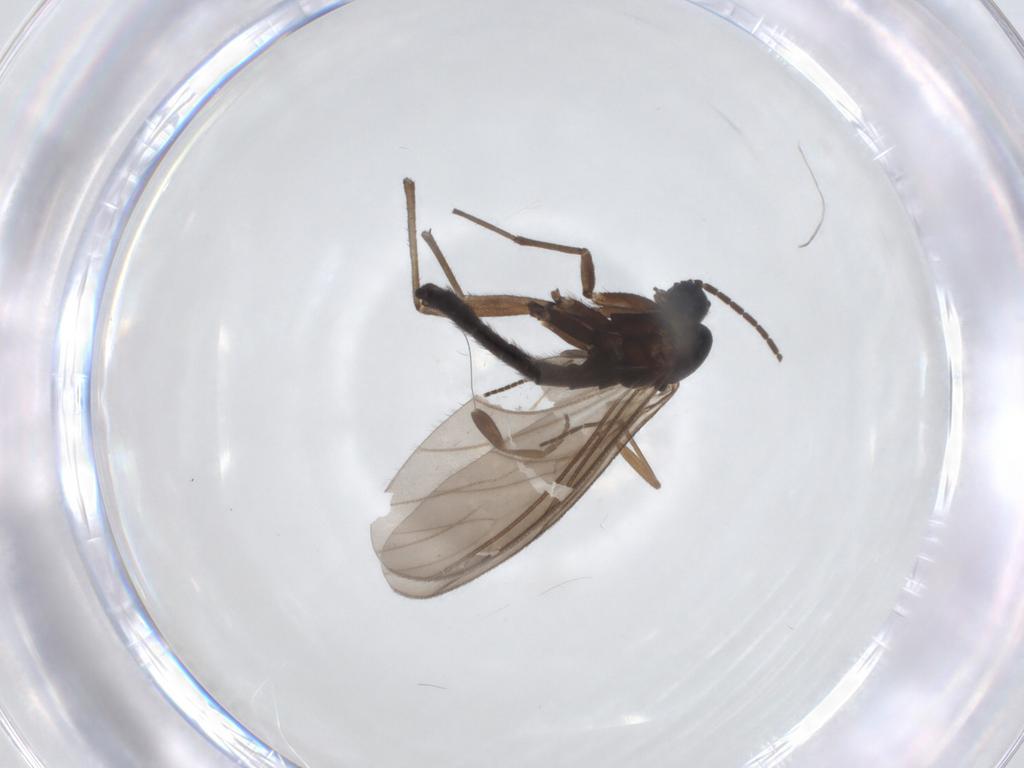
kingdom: Animalia
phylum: Arthropoda
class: Insecta
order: Diptera
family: Sciaridae
